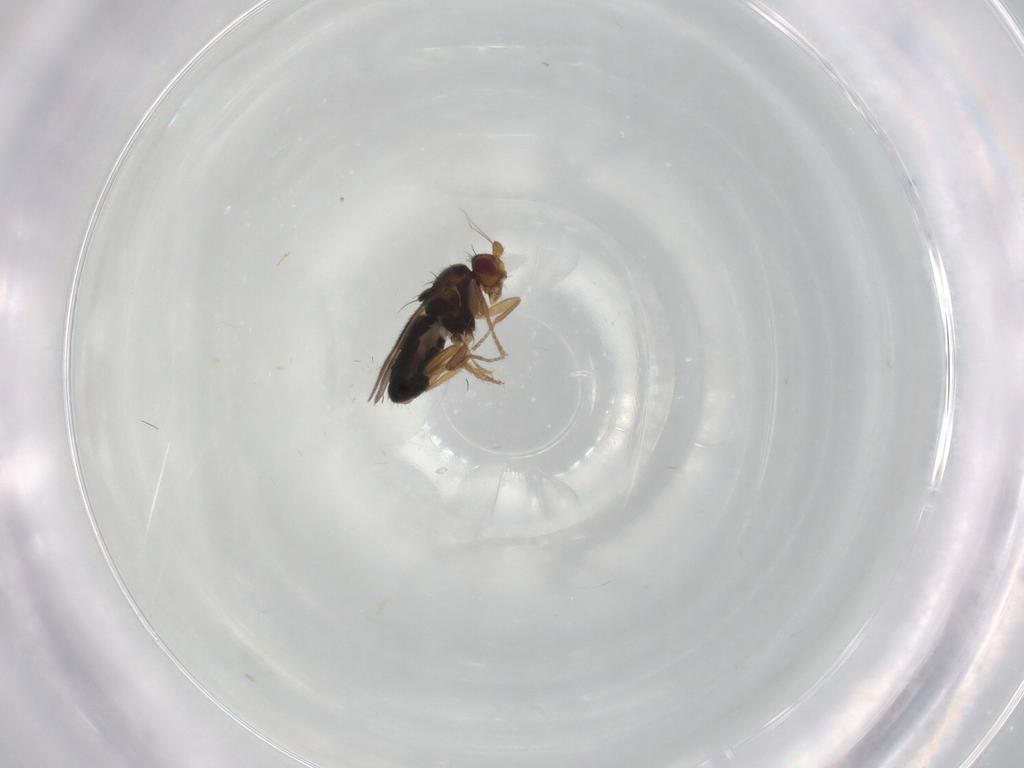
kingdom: Animalia
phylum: Arthropoda
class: Insecta
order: Diptera
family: Sphaeroceridae
